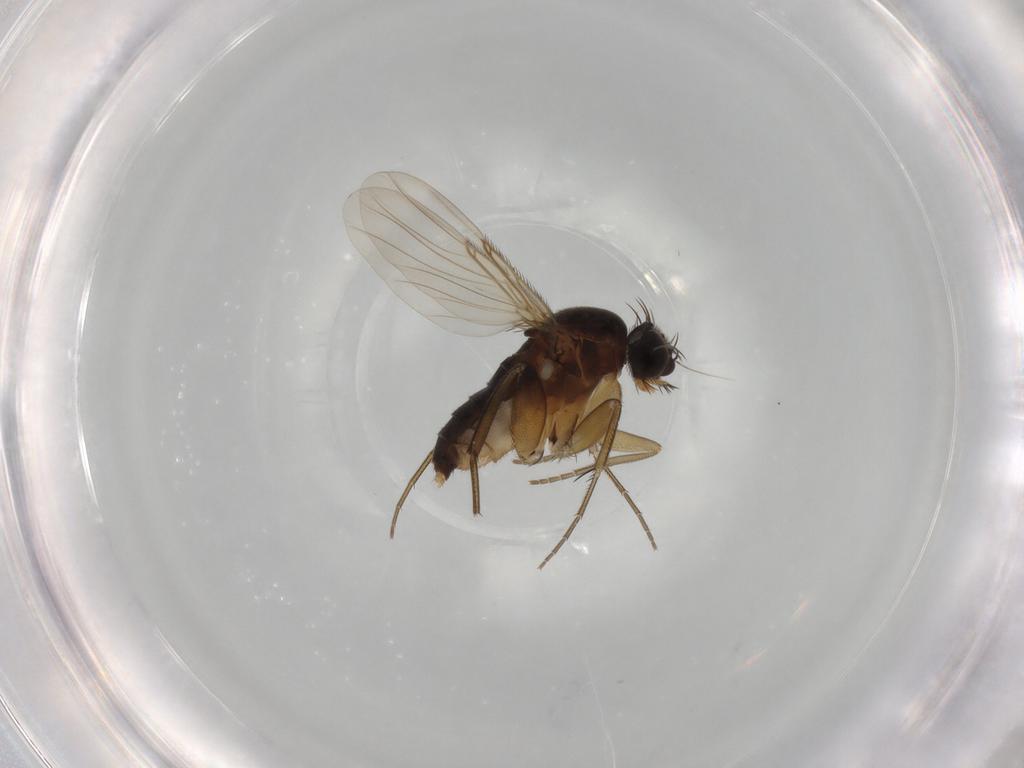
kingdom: Animalia
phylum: Arthropoda
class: Insecta
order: Diptera
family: Phoridae
